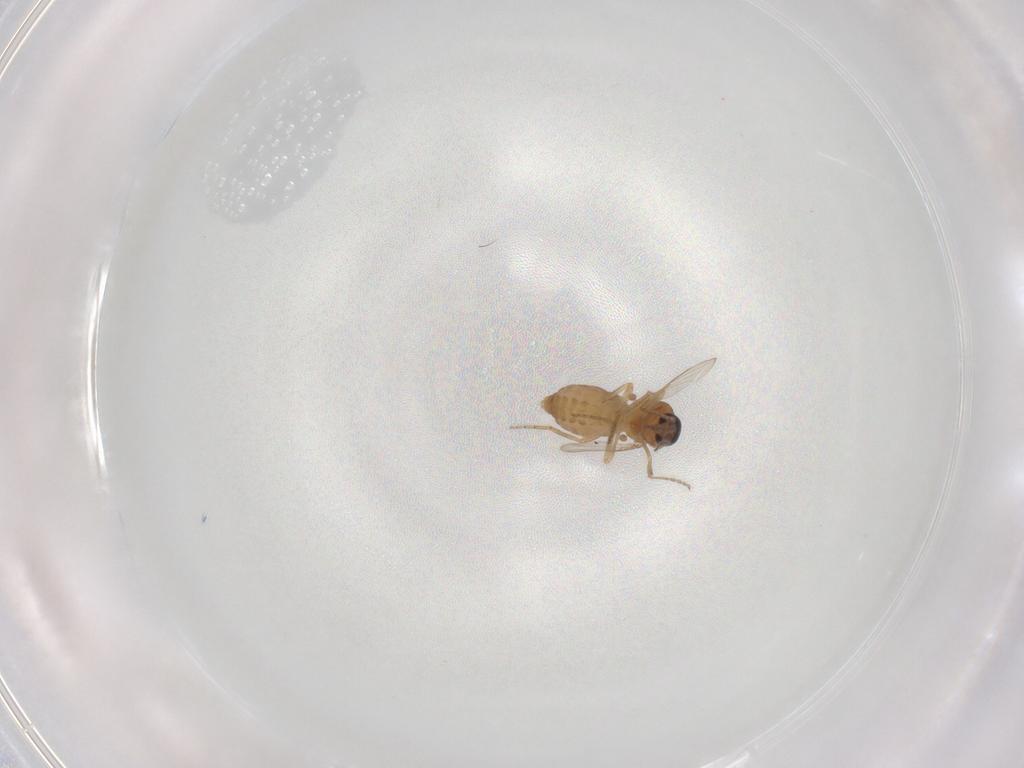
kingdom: Animalia
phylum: Arthropoda
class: Insecta
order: Diptera
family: Ceratopogonidae
